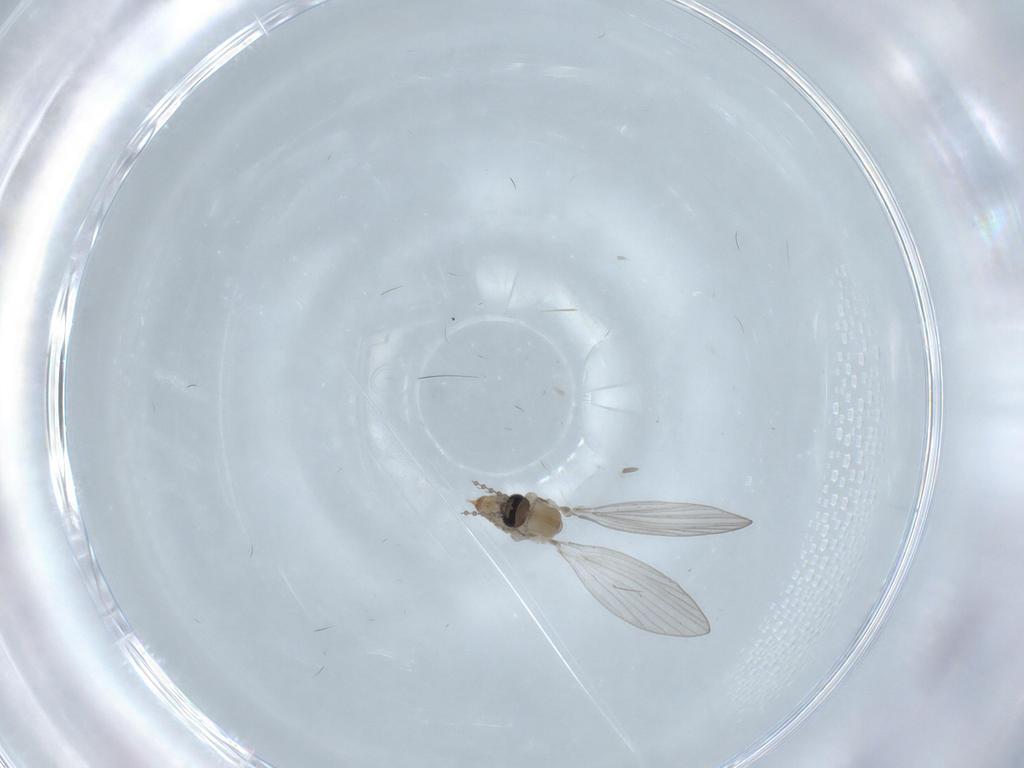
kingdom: Animalia
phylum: Arthropoda
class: Insecta
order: Diptera
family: Psychodidae
